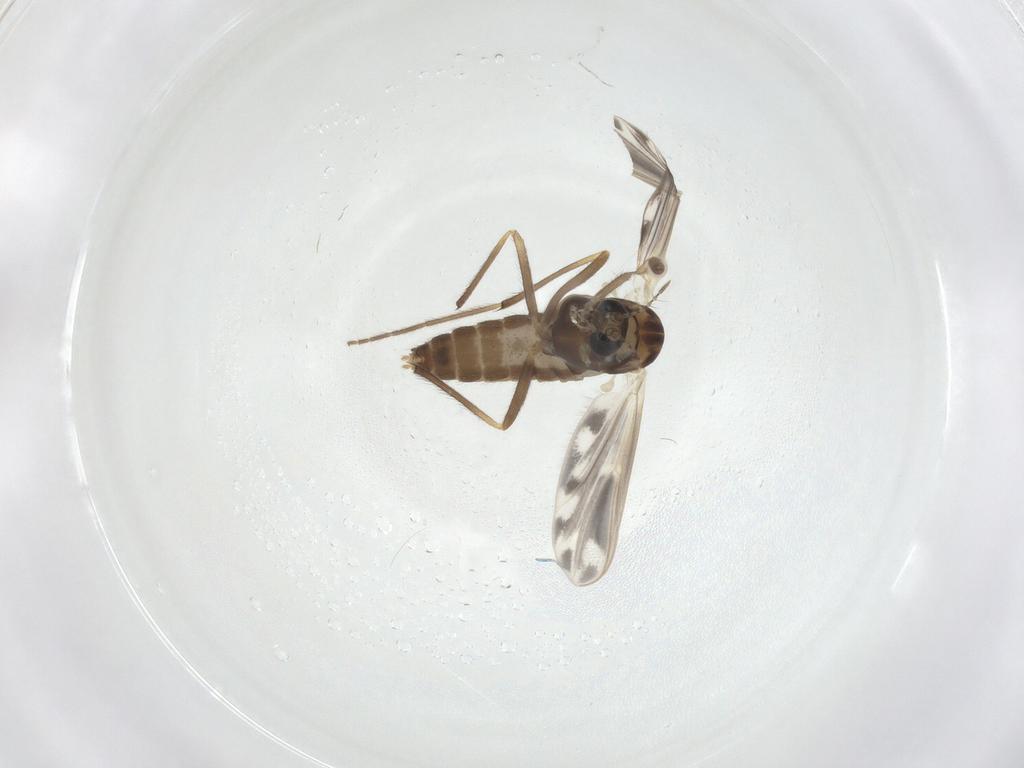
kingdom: Animalia
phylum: Arthropoda
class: Insecta
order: Diptera
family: Chironomidae
